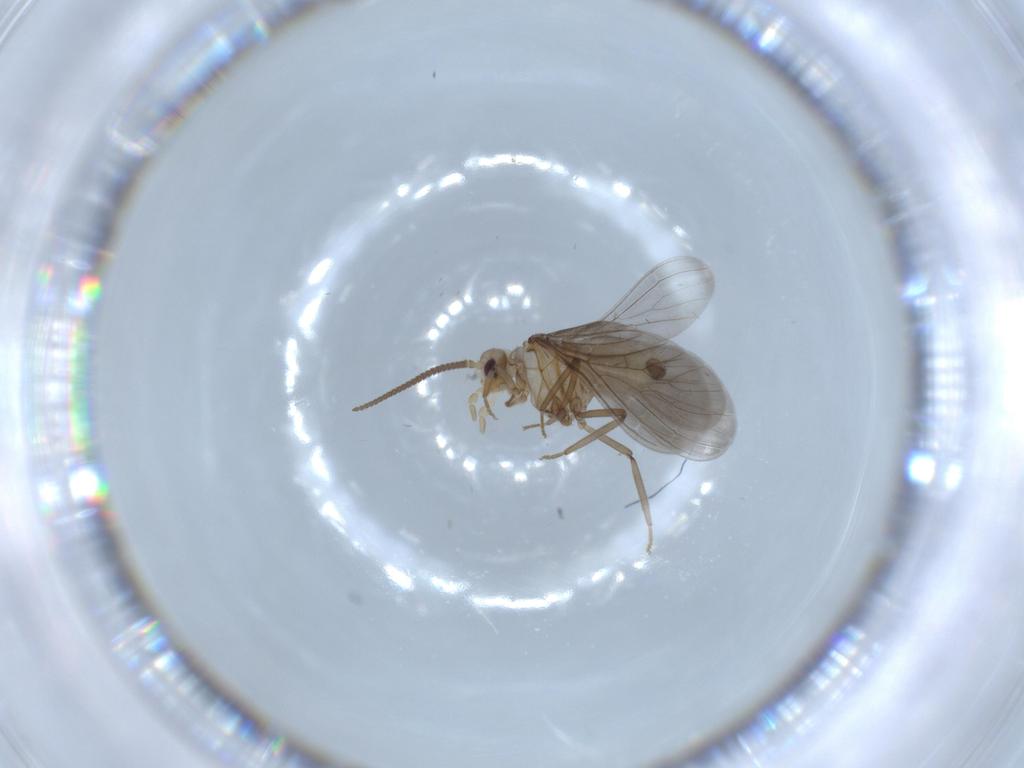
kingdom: Animalia
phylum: Arthropoda
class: Insecta
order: Neuroptera
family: Coniopterygidae
